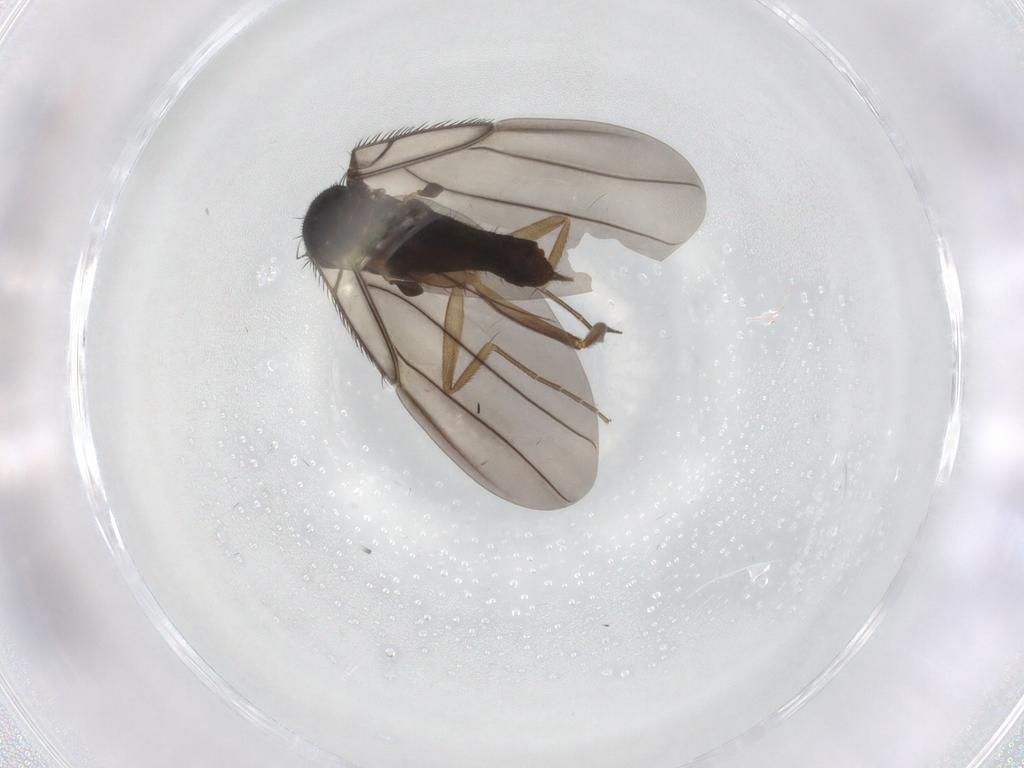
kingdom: Animalia
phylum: Arthropoda
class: Insecta
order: Diptera
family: Phoridae
